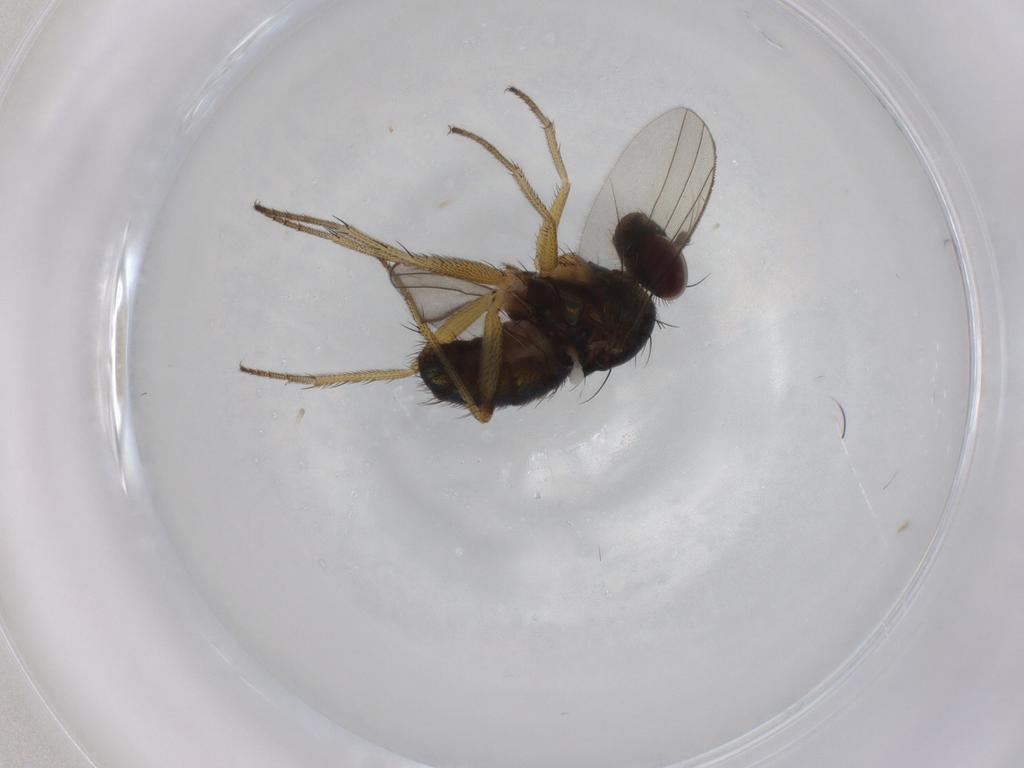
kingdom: Animalia
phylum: Arthropoda
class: Insecta
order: Diptera
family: Dolichopodidae
